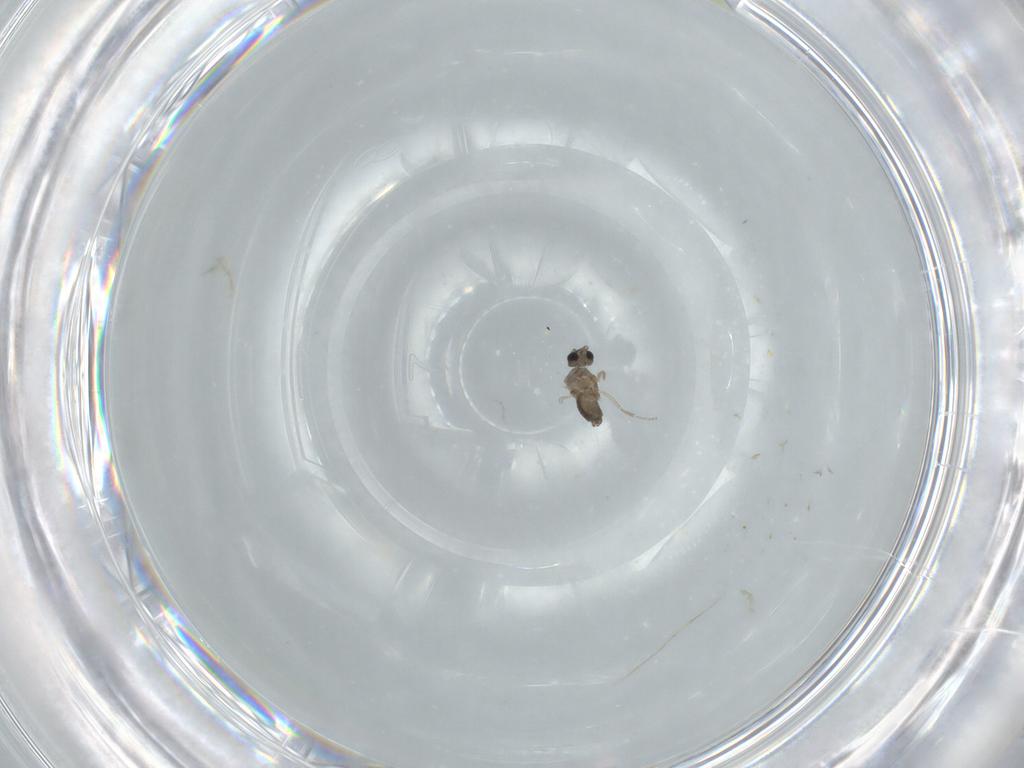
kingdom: Animalia
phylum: Arthropoda
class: Insecta
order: Diptera
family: Cecidomyiidae
